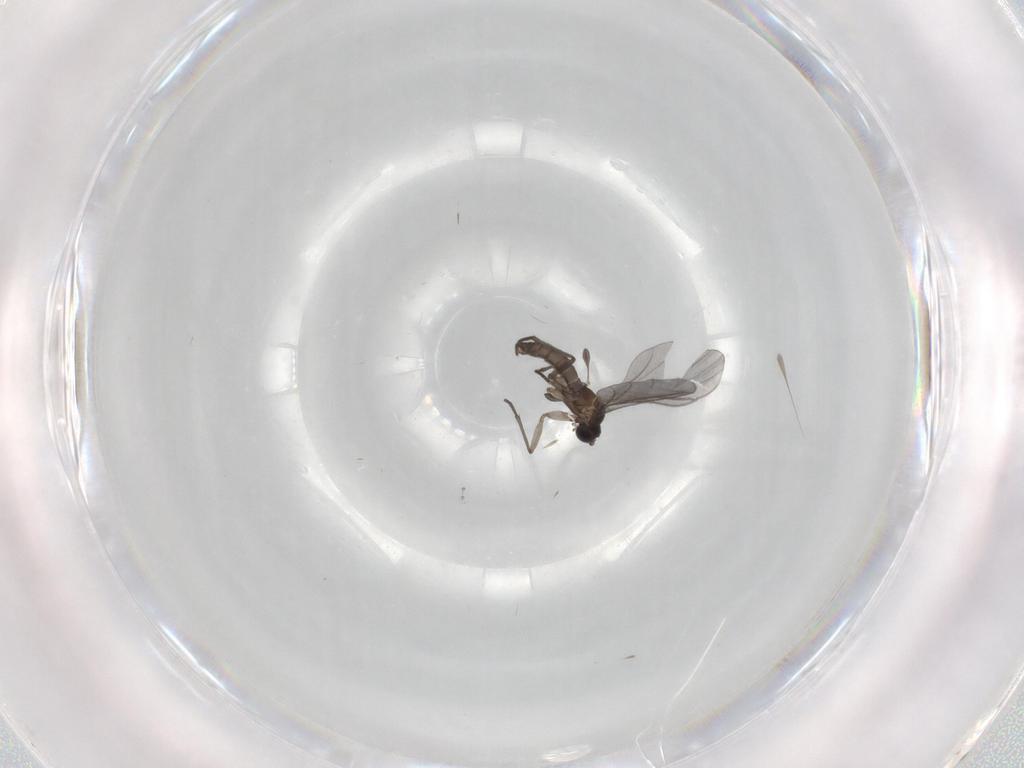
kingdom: Animalia
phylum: Arthropoda
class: Insecta
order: Diptera
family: Sciaridae
